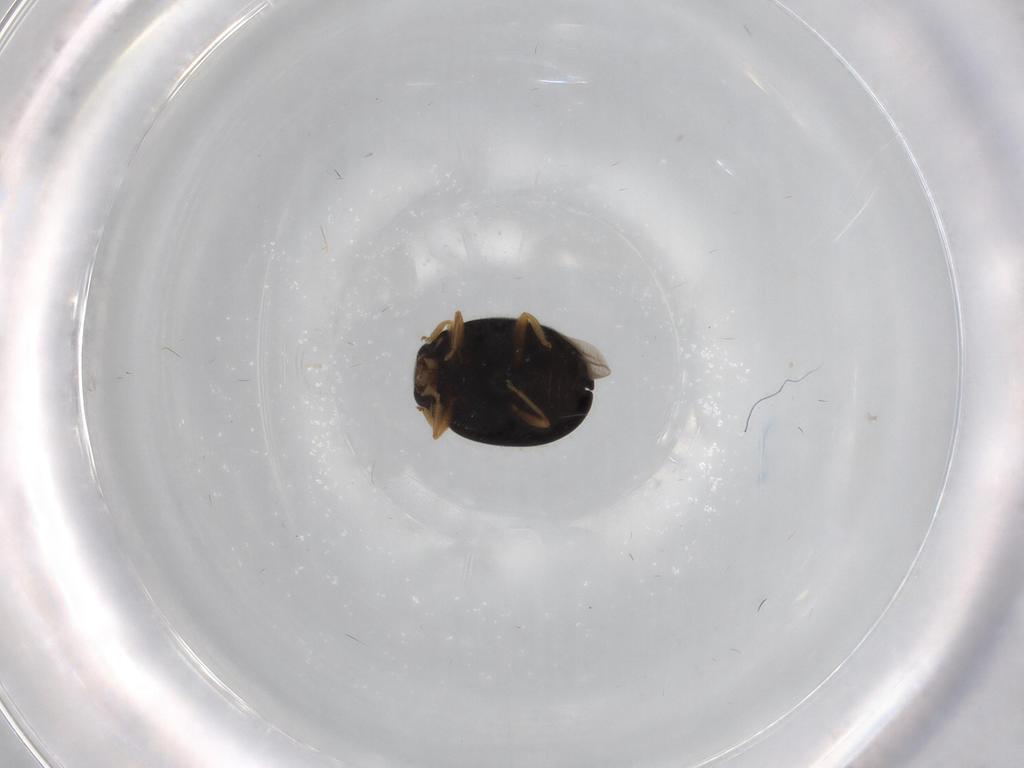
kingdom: Animalia
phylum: Arthropoda
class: Insecta
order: Coleoptera
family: Coccinellidae
